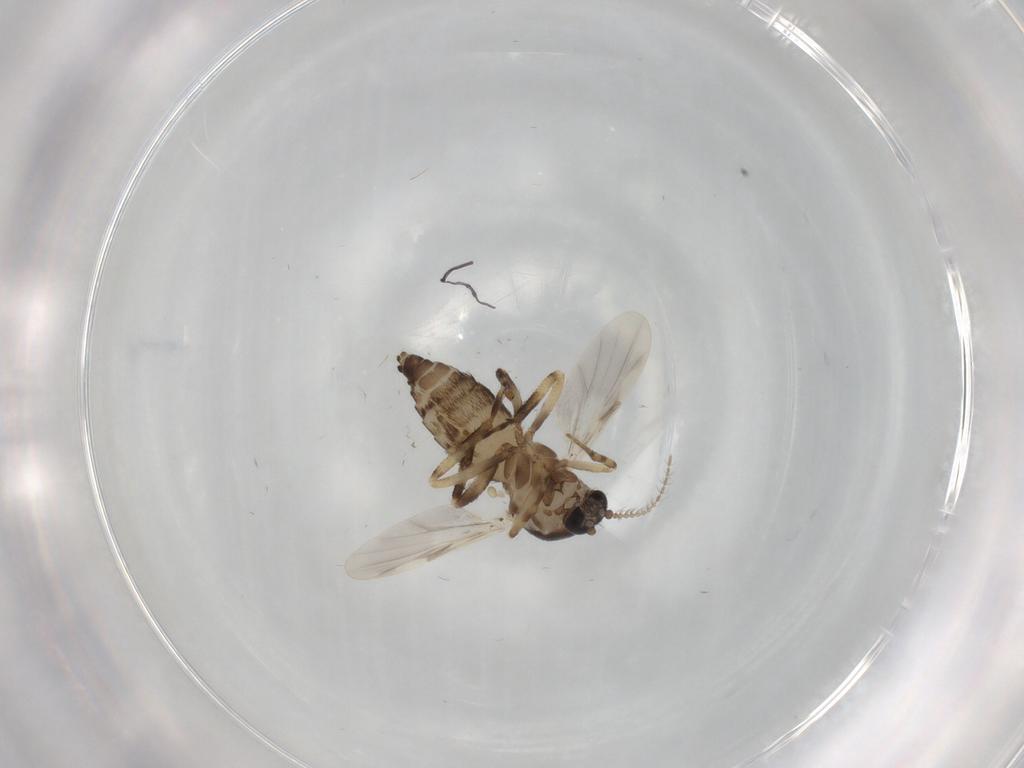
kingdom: Animalia
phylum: Arthropoda
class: Insecta
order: Diptera
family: Ceratopogonidae
